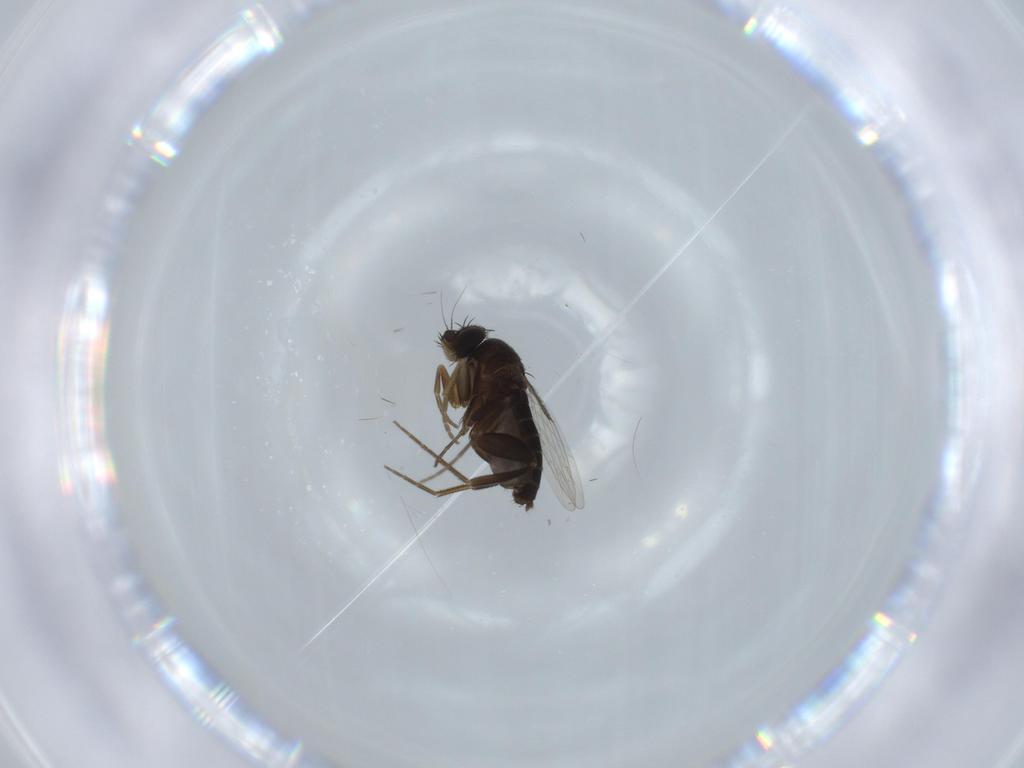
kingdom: Animalia
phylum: Arthropoda
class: Insecta
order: Diptera
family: Phoridae
